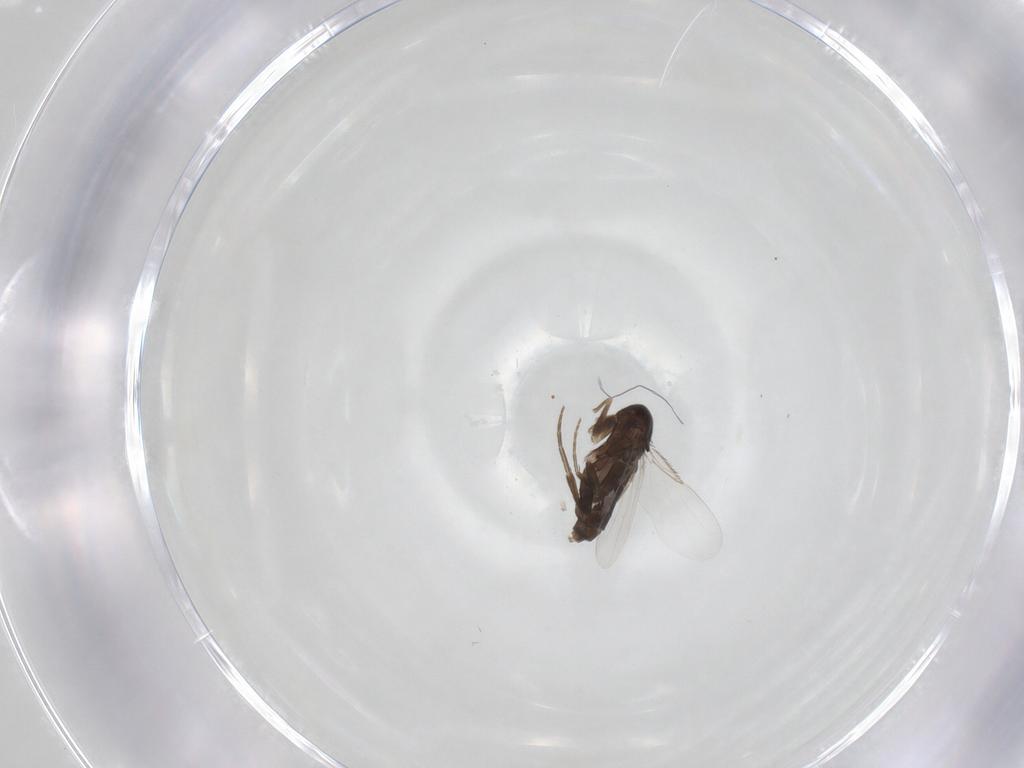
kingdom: Animalia
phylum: Arthropoda
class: Insecta
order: Diptera
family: Phoridae
